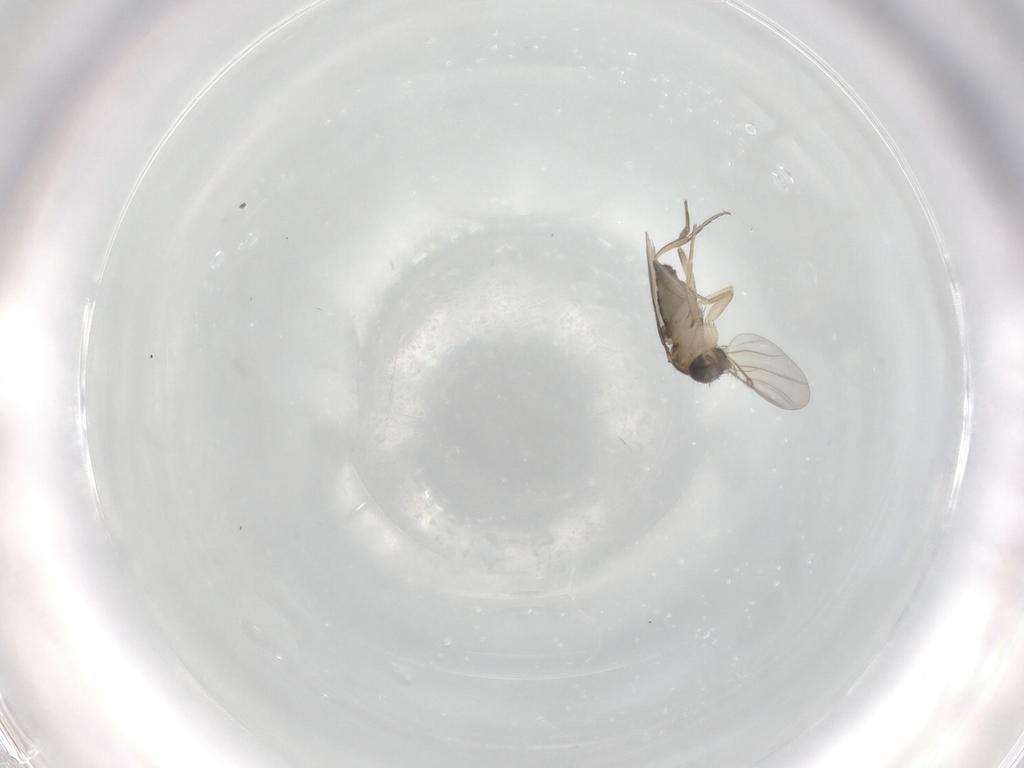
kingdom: Animalia
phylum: Arthropoda
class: Insecta
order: Diptera
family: Phoridae
